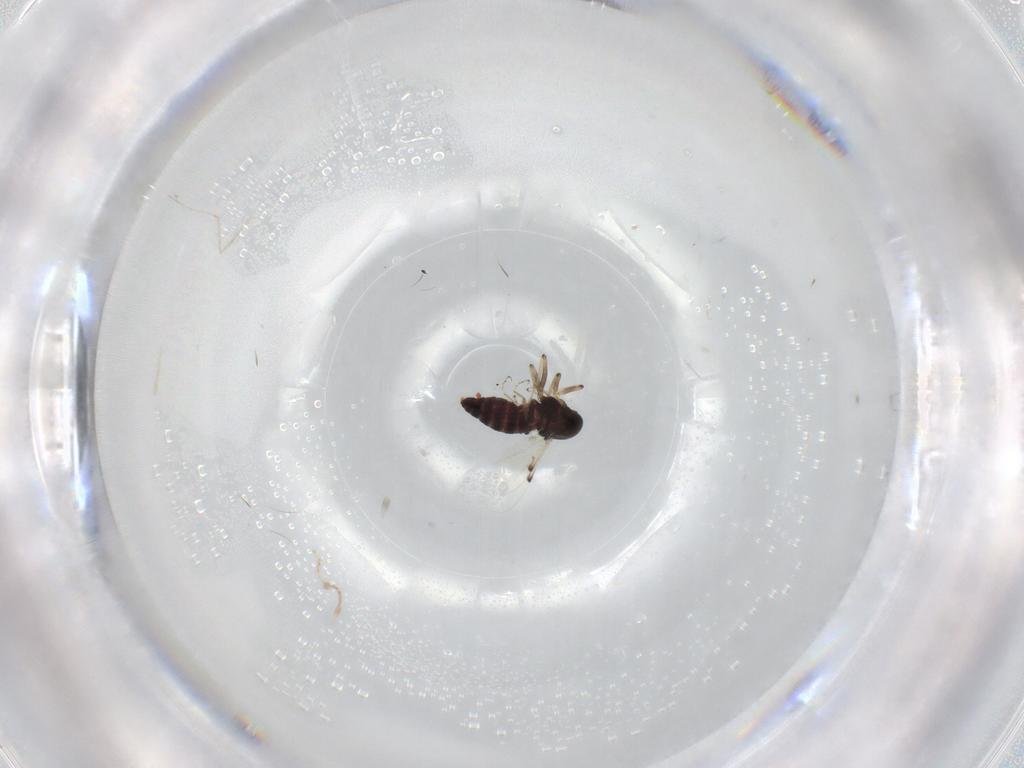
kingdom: Animalia
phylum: Arthropoda
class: Insecta
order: Diptera
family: Ceratopogonidae
